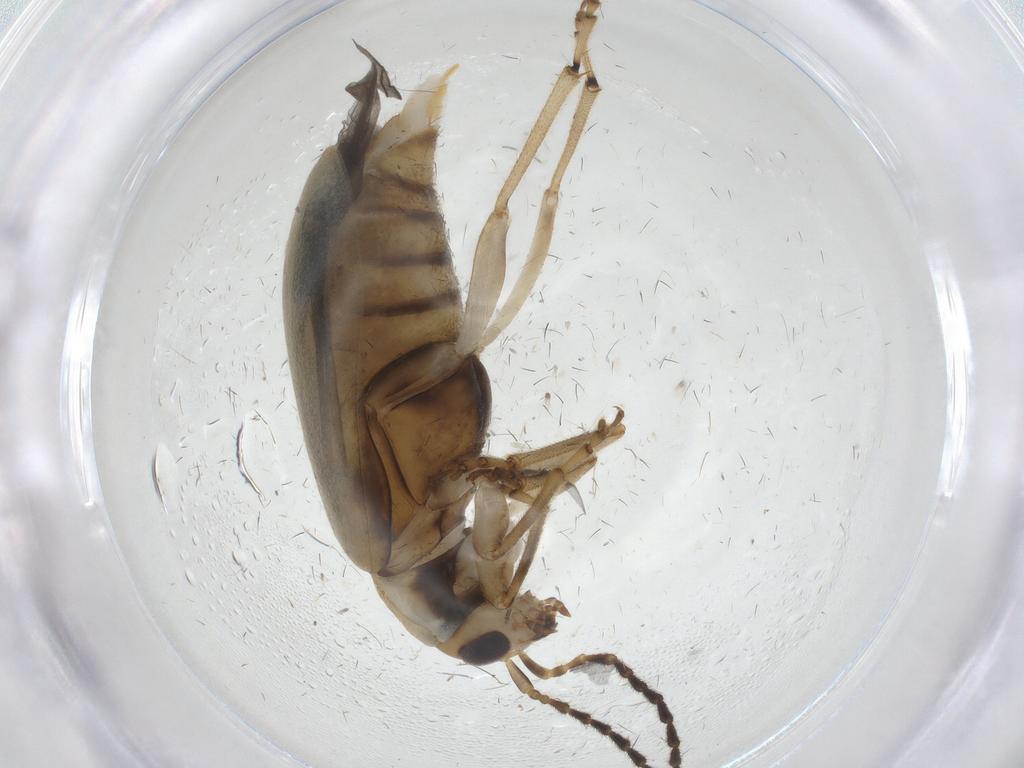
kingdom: Animalia
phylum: Arthropoda
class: Insecta
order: Coleoptera
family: Chrysomelidae
